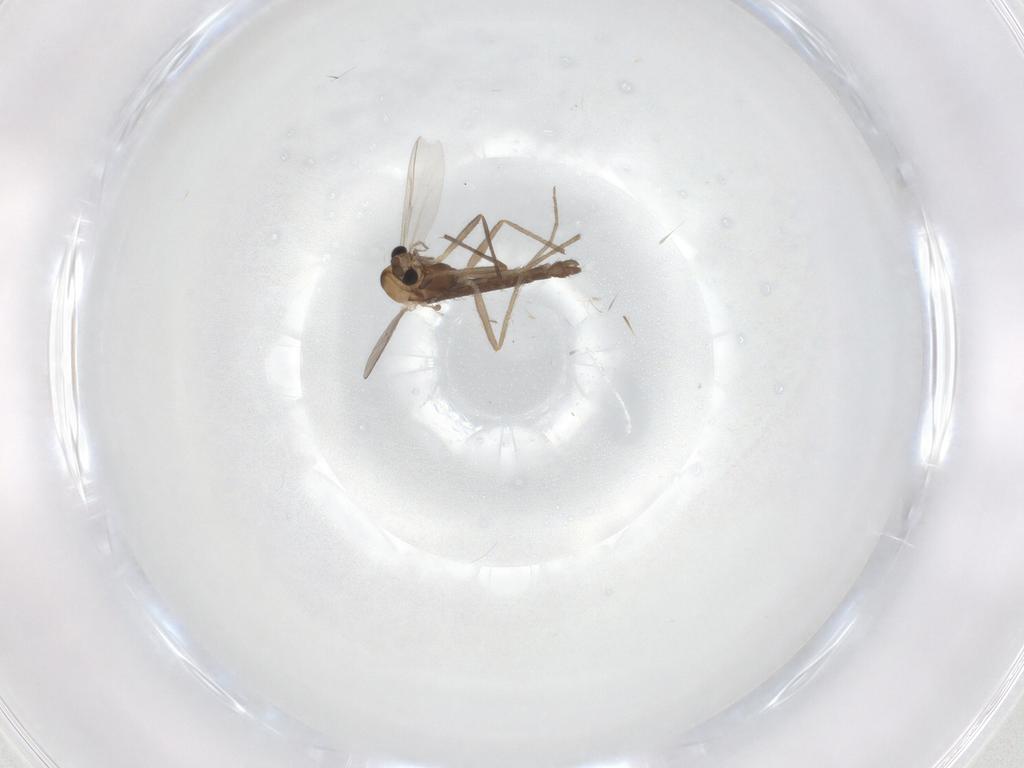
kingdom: Animalia
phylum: Arthropoda
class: Insecta
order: Diptera
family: Chironomidae
